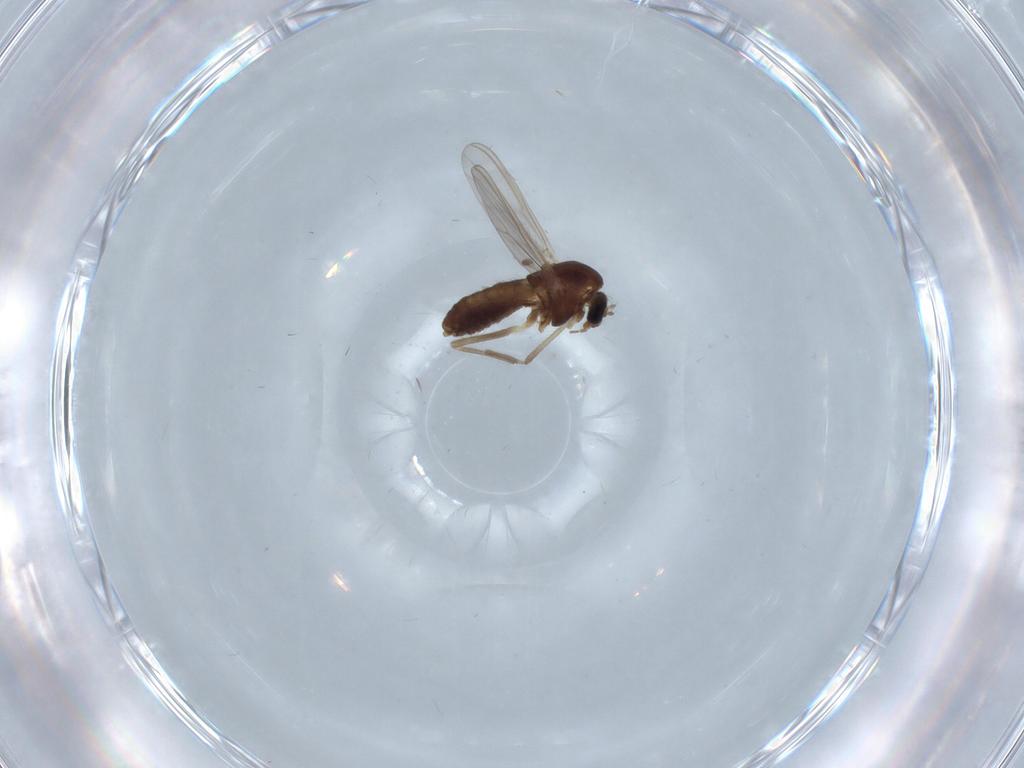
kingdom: Animalia
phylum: Arthropoda
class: Insecta
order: Diptera
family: Chironomidae
